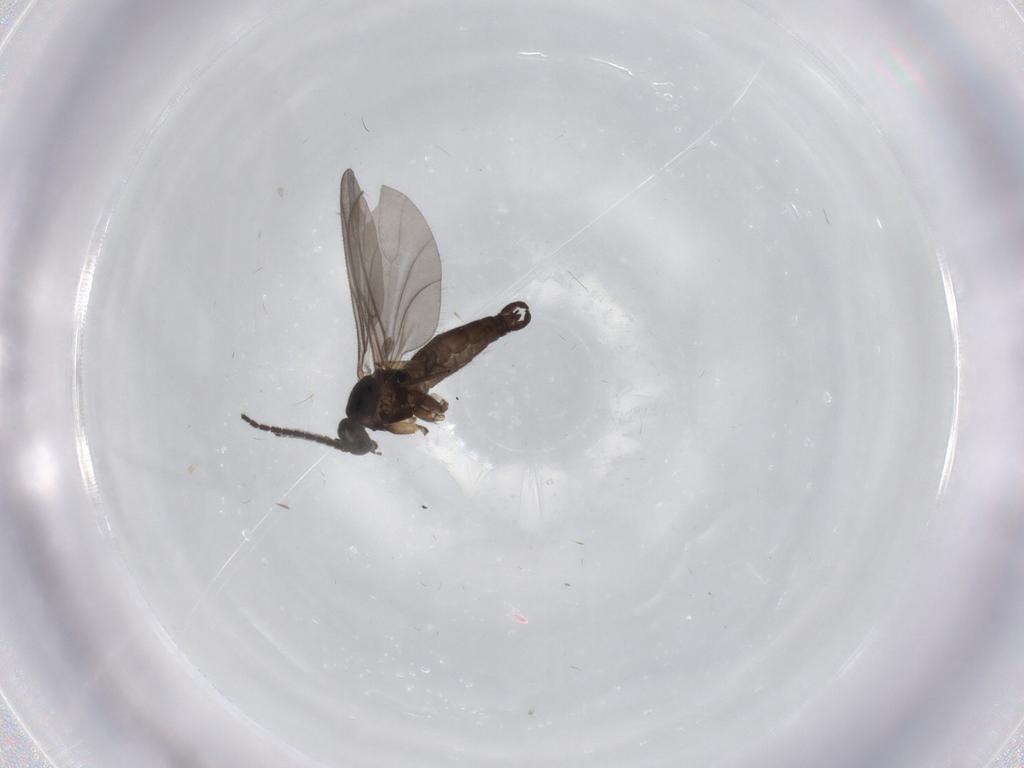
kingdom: Animalia
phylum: Arthropoda
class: Insecta
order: Diptera
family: Chironomidae
